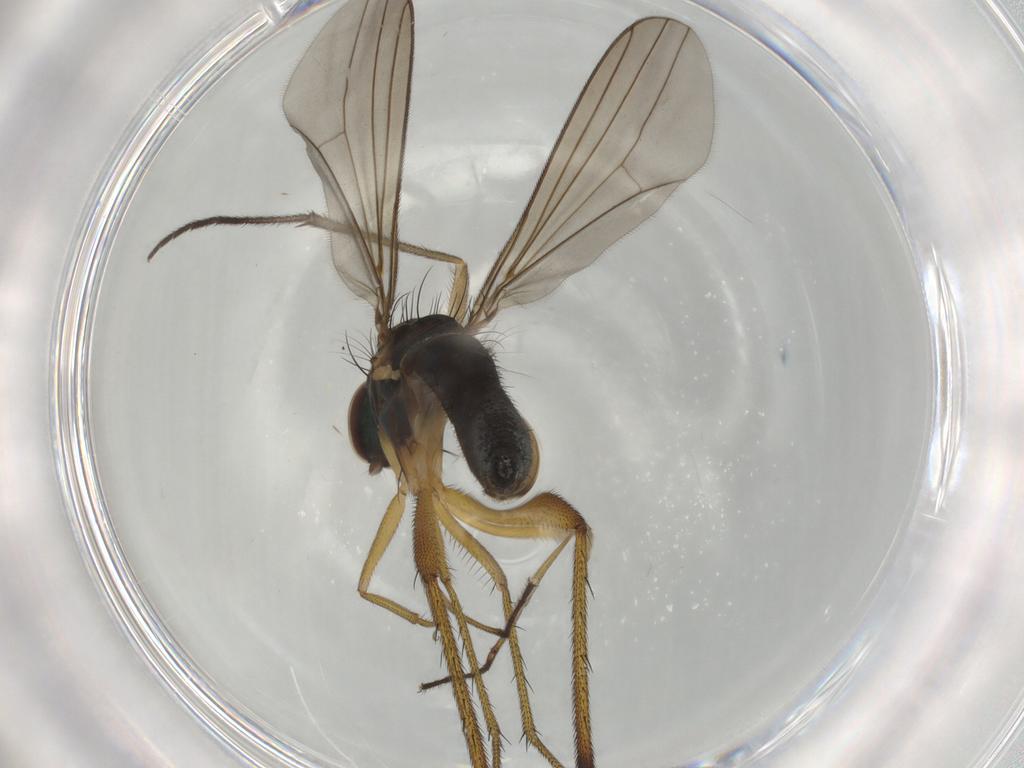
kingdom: Animalia
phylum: Arthropoda
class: Insecta
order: Diptera
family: Dolichopodidae
